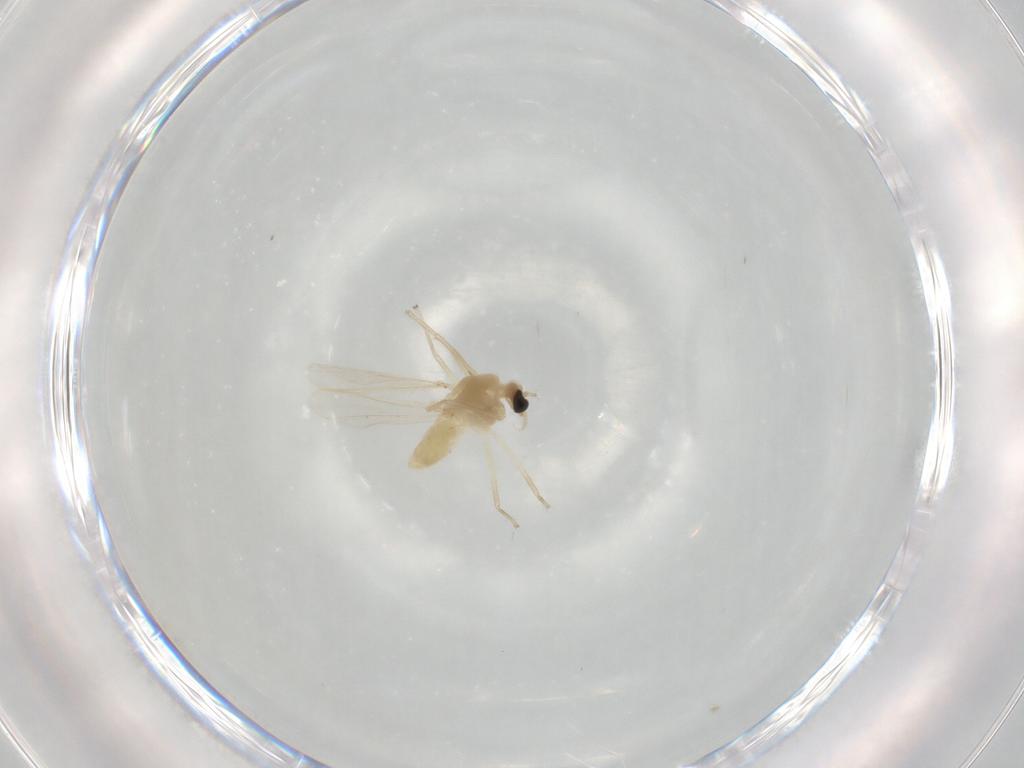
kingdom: Animalia
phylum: Arthropoda
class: Insecta
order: Diptera
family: Chironomidae
